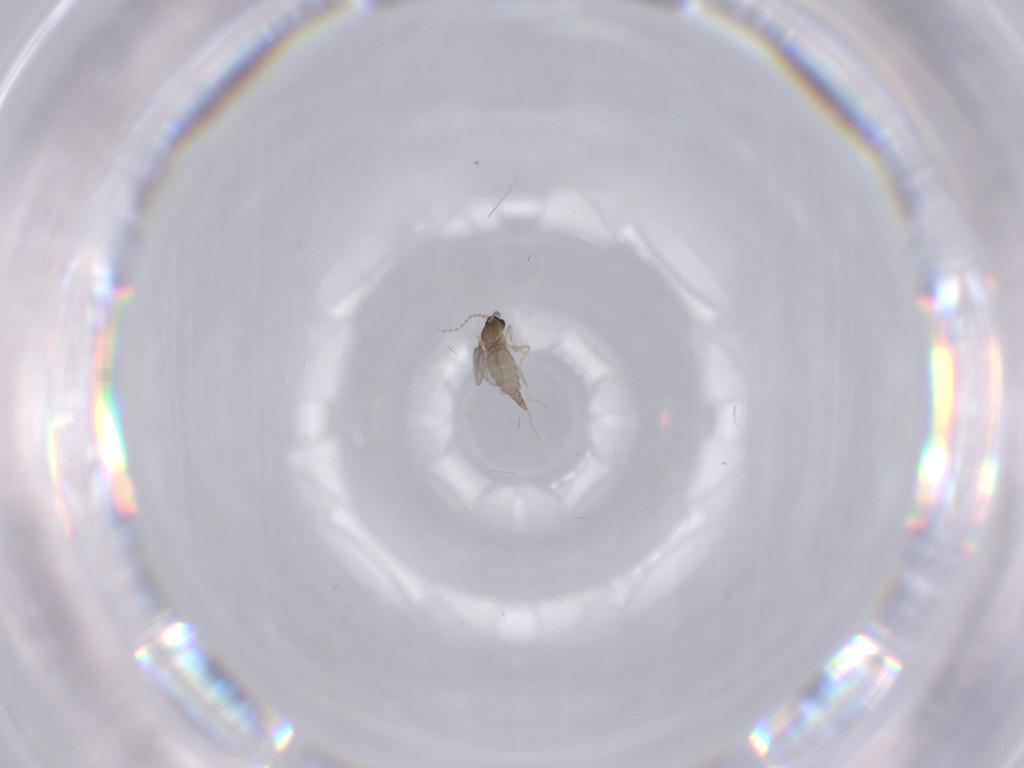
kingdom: Animalia
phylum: Arthropoda
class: Insecta
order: Diptera
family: Cecidomyiidae
